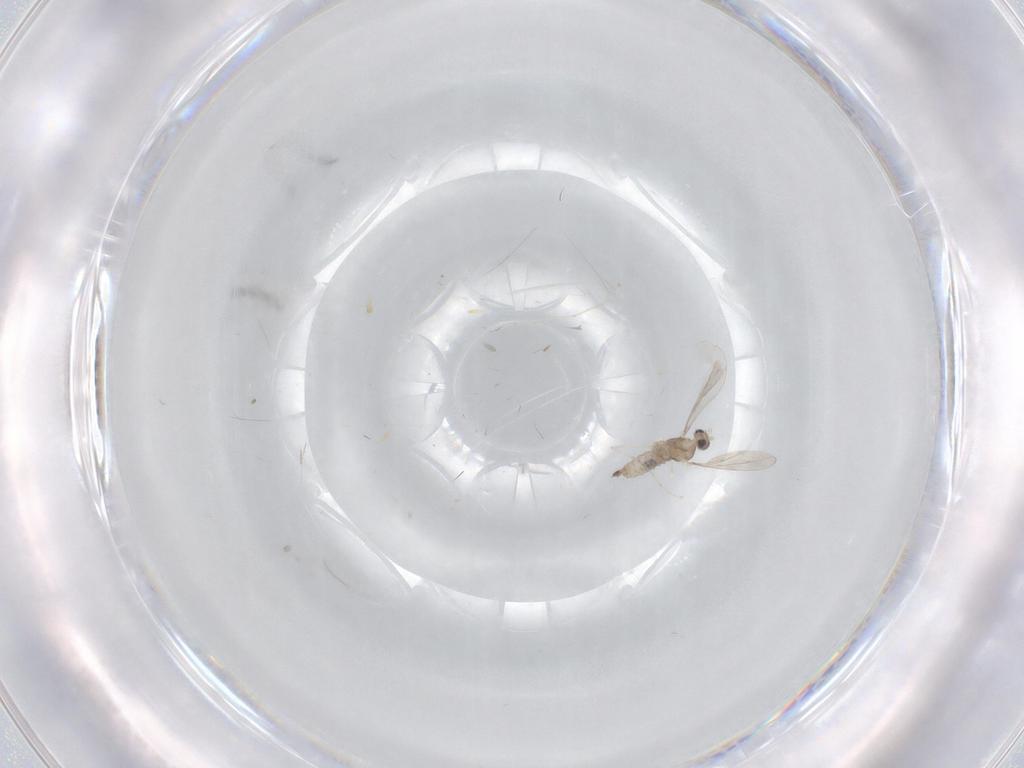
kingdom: Animalia
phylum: Arthropoda
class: Insecta
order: Diptera
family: Cecidomyiidae
